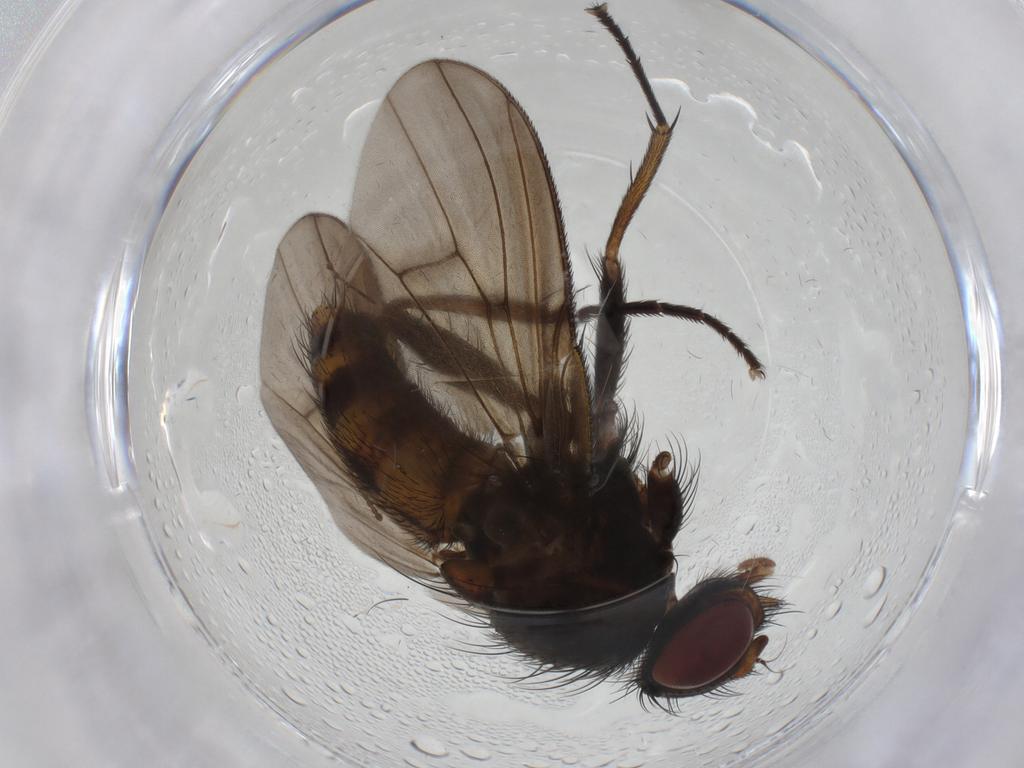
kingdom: Animalia
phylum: Arthropoda
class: Insecta
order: Diptera
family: Muscidae
